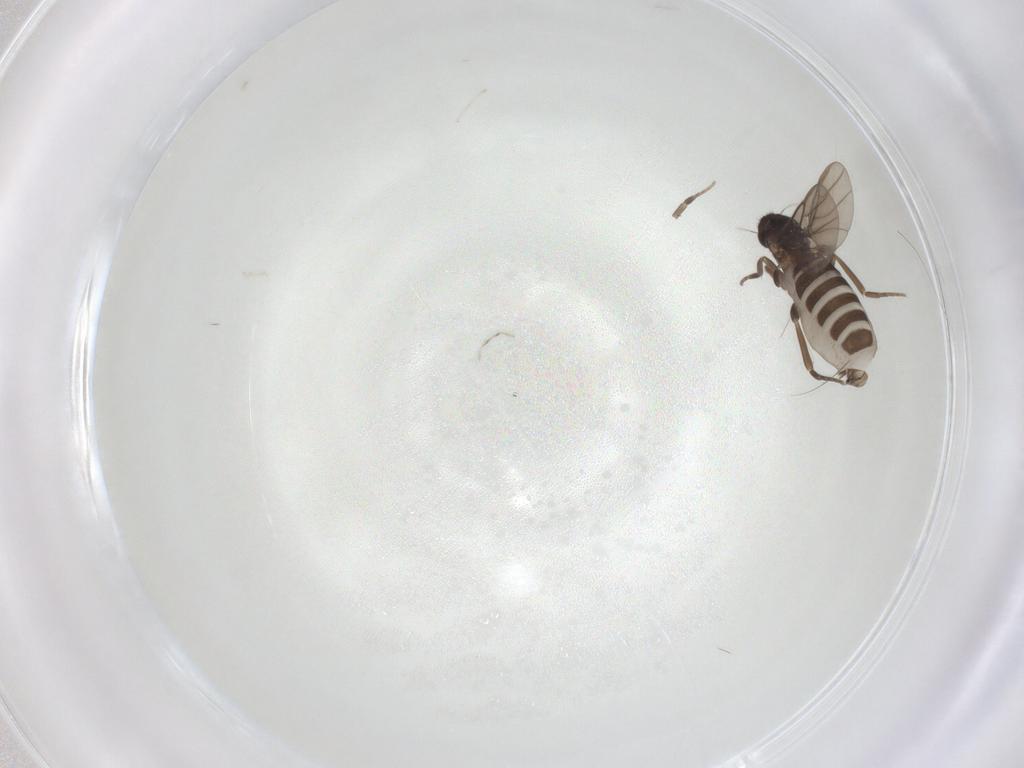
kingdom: Animalia
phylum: Arthropoda
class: Insecta
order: Diptera
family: Phoridae
